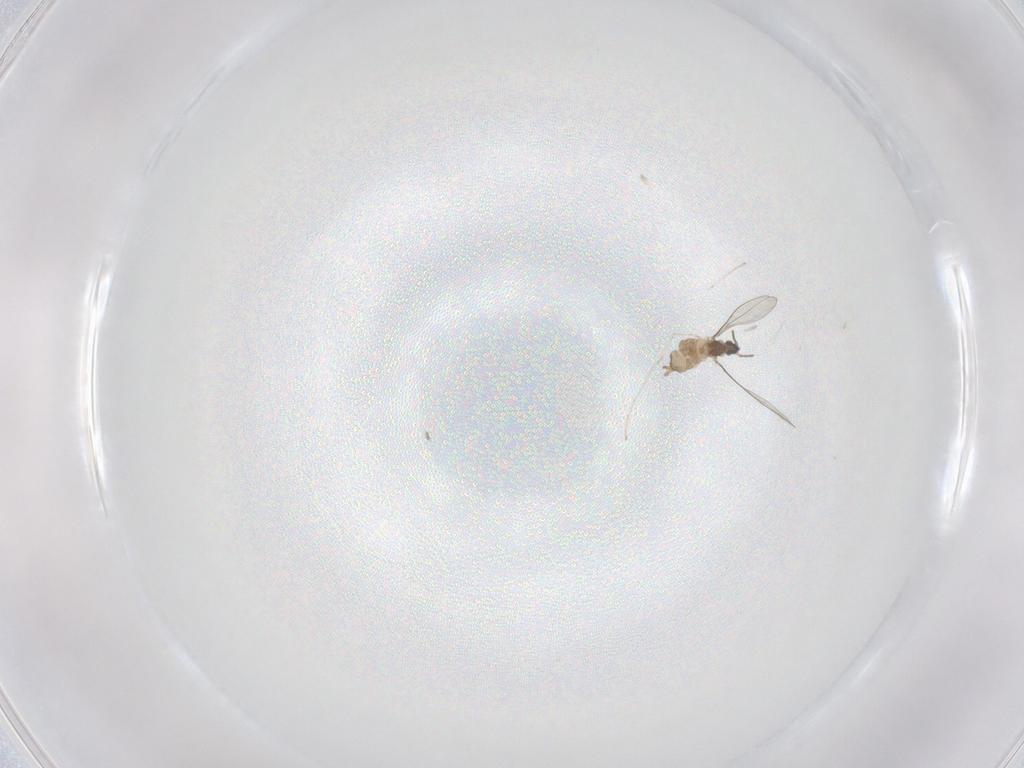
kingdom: Animalia
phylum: Arthropoda
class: Insecta
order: Diptera
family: Cecidomyiidae
